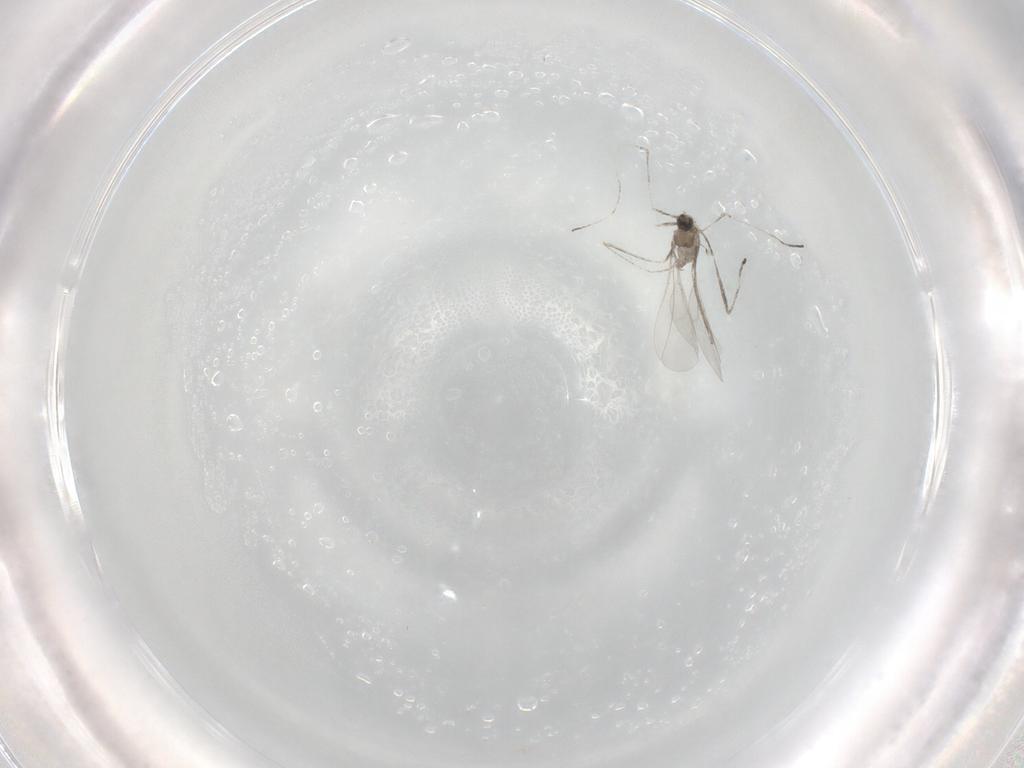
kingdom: Animalia
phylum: Arthropoda
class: Insecta
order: Diptera
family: Cecidomyiidae
